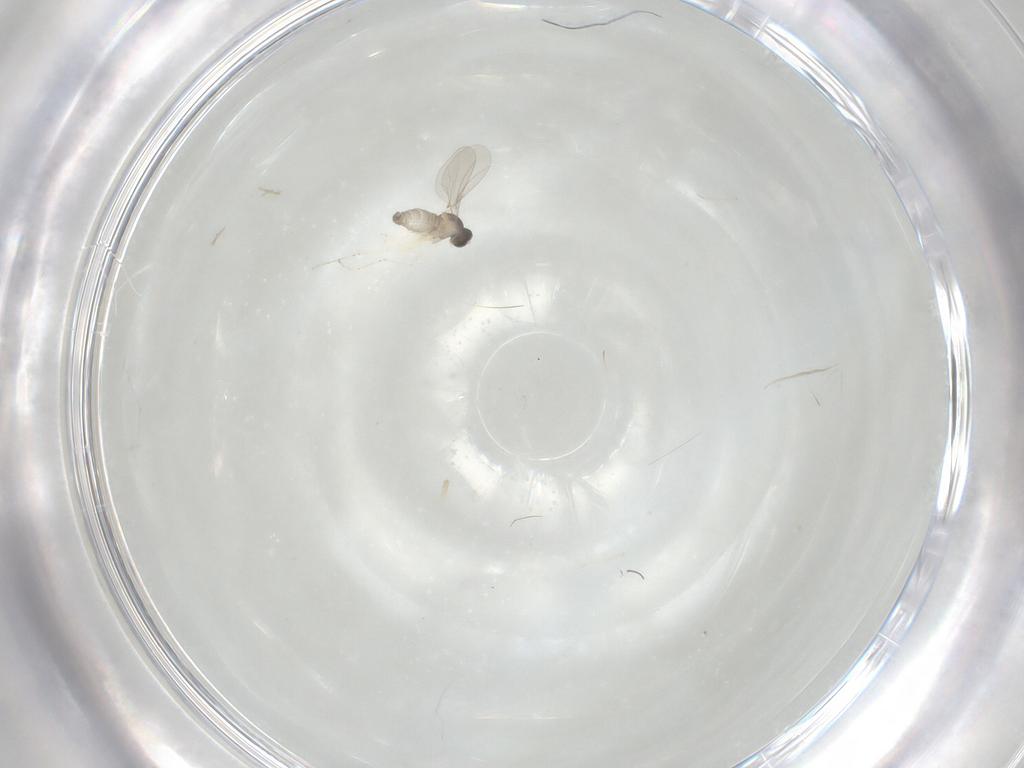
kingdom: Animalia
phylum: Arthropoda
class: Insecta
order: Diptera
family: Cecidomyiidae
